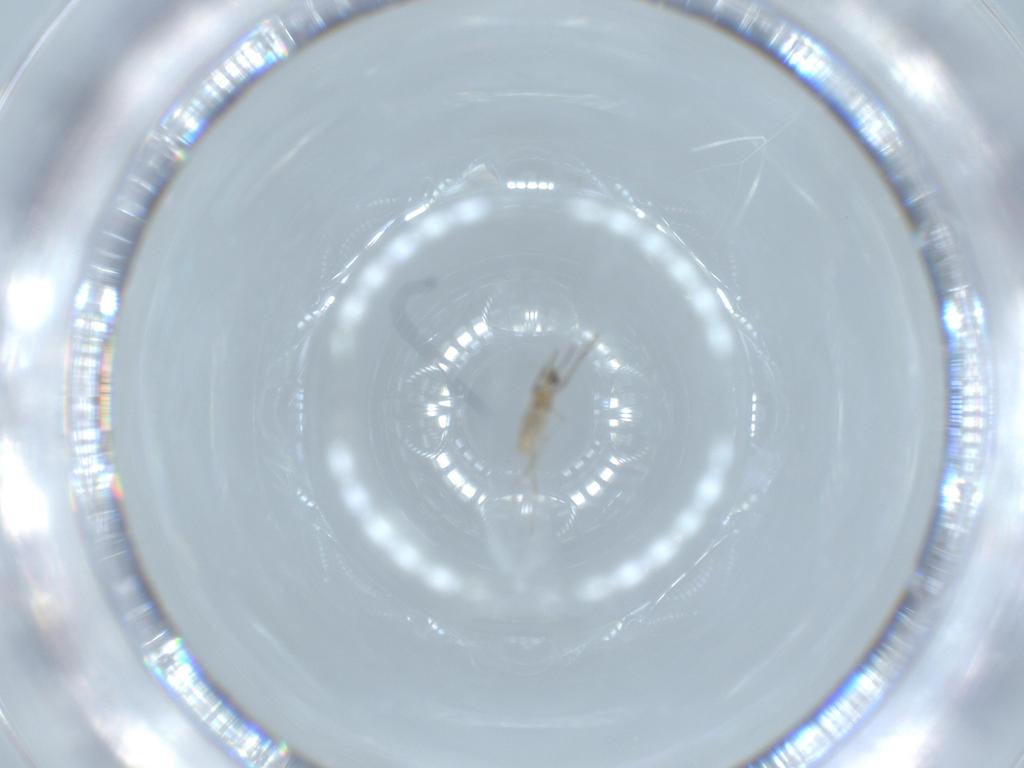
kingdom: Animalia
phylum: Arthropoda
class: Insecta
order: Diptera
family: Cecidomyiidae
